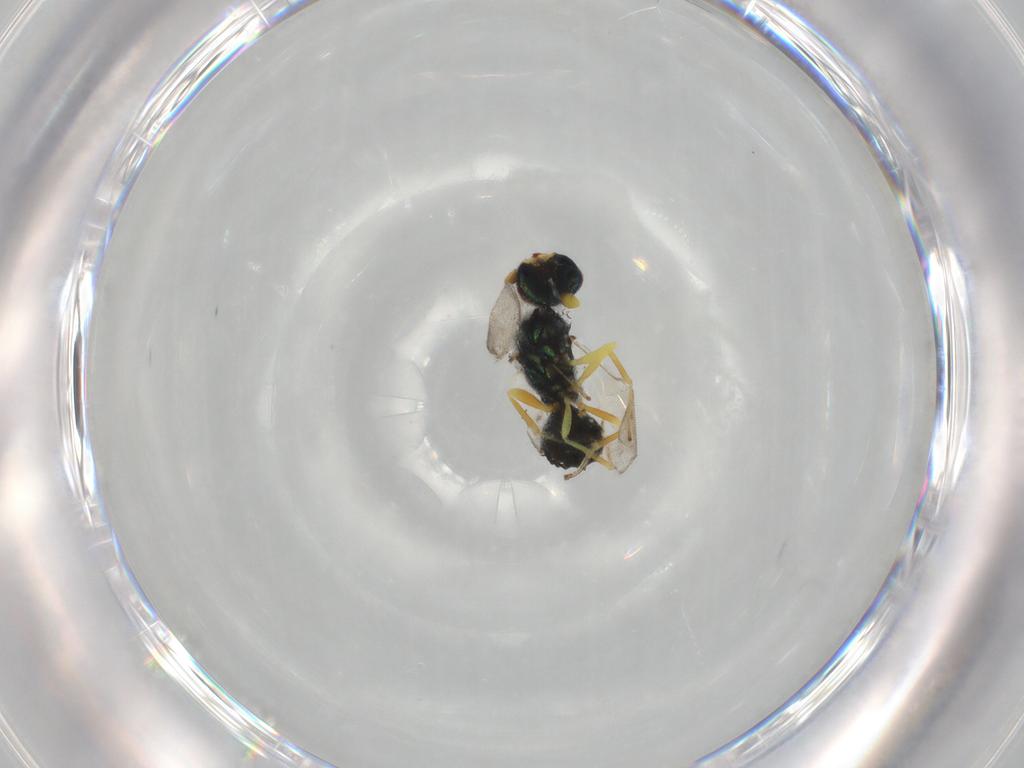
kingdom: Animalia
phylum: Arthropoda
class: Insecta
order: Hymenoptera
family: Pteromalidae
